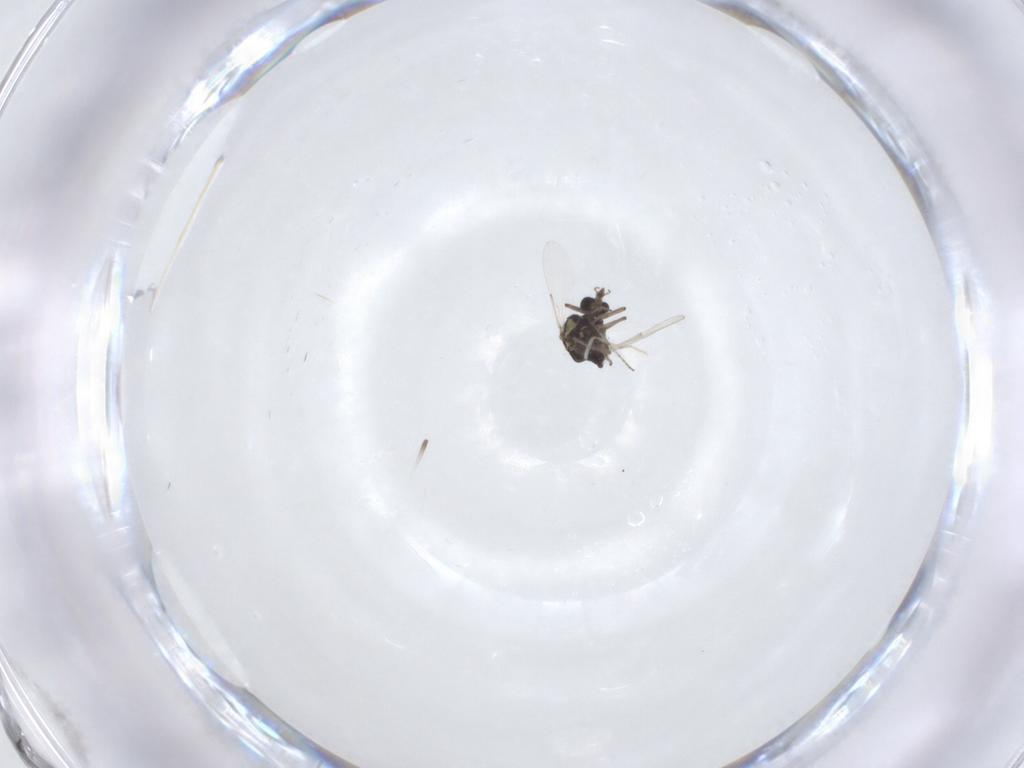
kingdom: Animalia
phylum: Arthropoda
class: Insecta
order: Diptera
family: Ceratopogonidae
